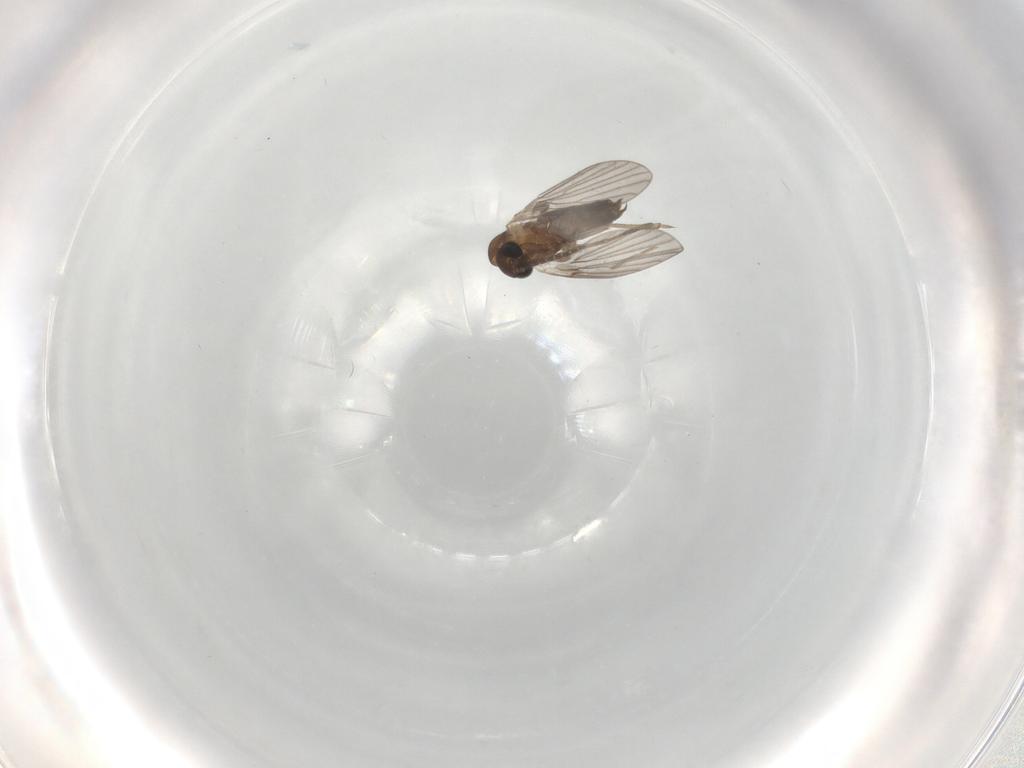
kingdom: Animalia
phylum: Arthropoda
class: Insecta
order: Diptera
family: Psychodidae
